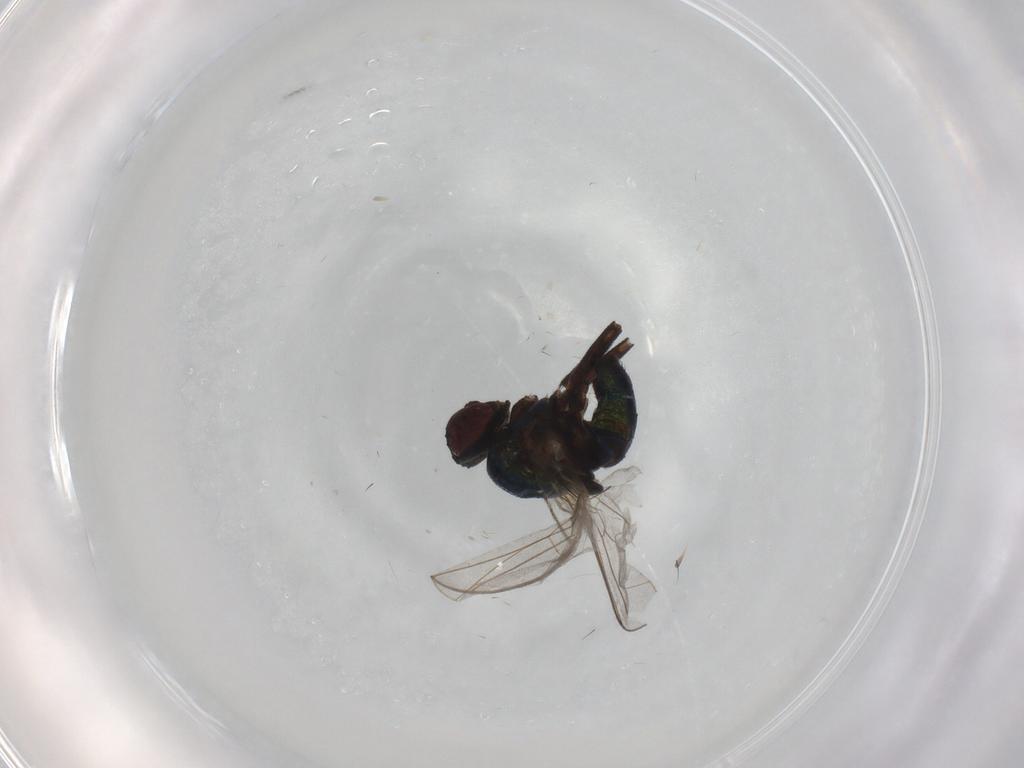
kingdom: Animalia
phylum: Arthropoda
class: Insecta
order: Diptera
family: Agromyzidae
